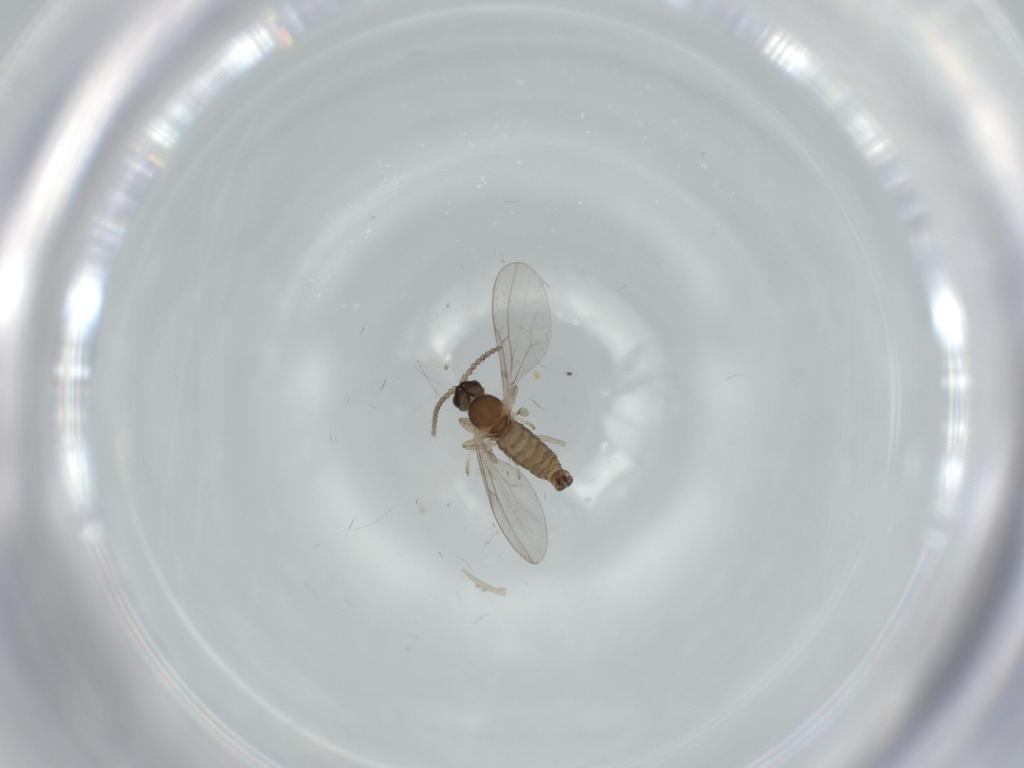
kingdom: Animalia
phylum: Arthropoda
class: Insecta
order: Diptera
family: Cecidomyiidae
